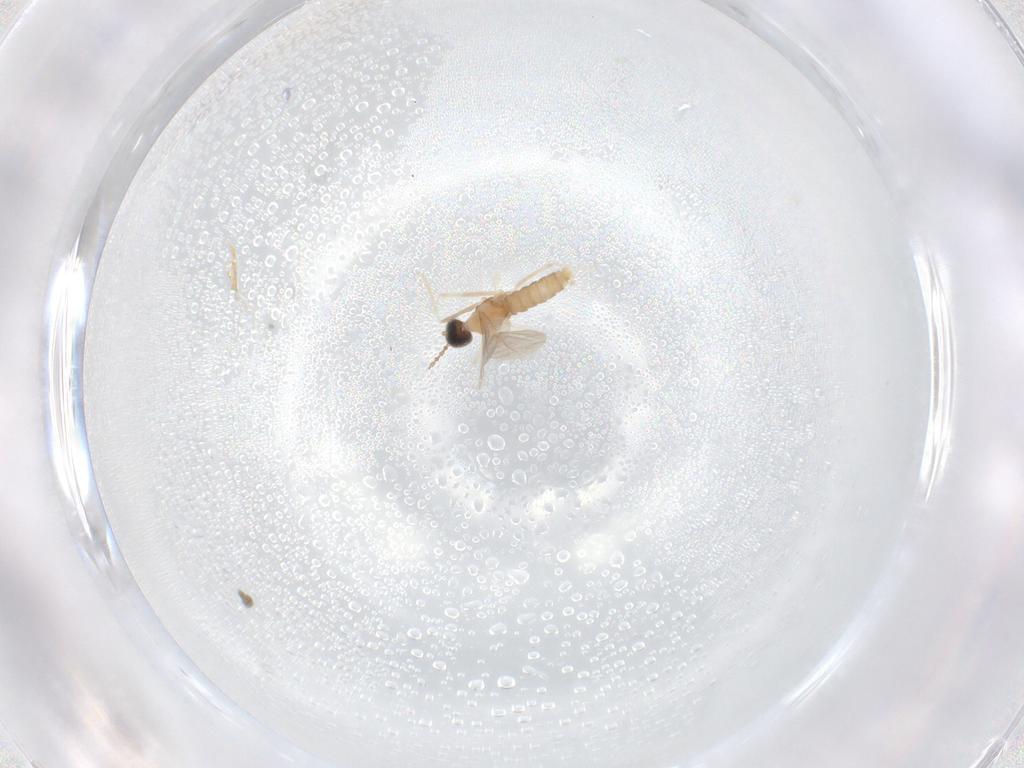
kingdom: Animalia
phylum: Arthropoda
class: Insecta
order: Diptera
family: Cecidomyiidae
